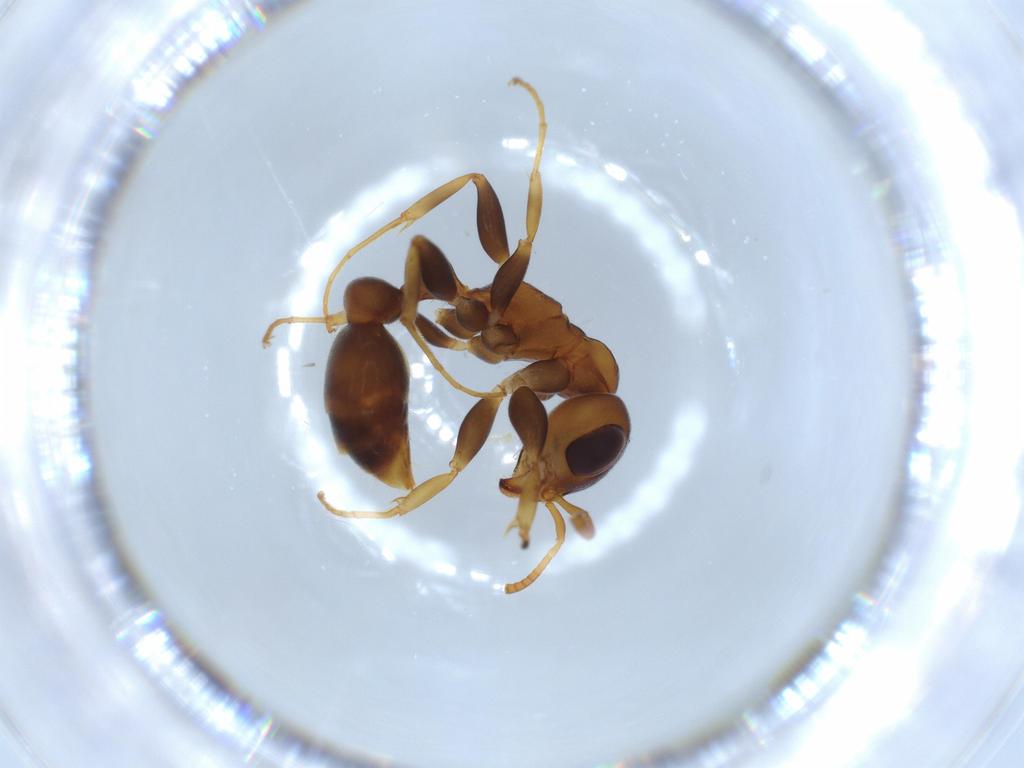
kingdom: Animalia
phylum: Arthropoda
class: Insecta
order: Hymenoptera
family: Formicidae
